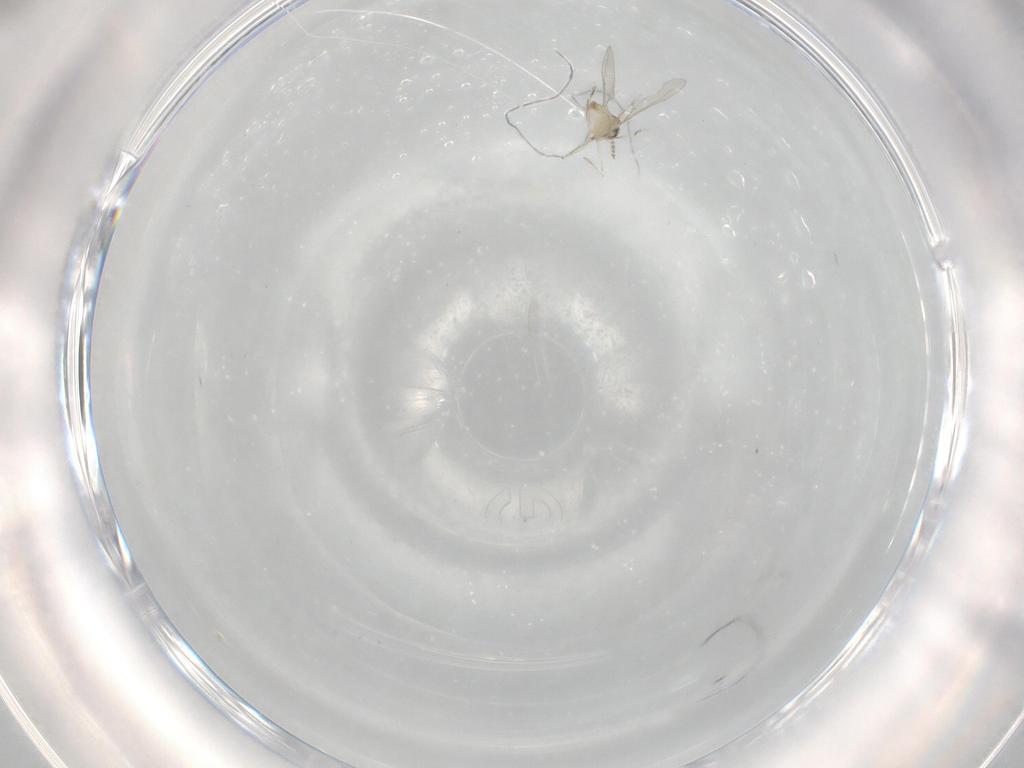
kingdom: Animalia
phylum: Arthropoda
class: Insecta
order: Diptera
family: Cecidomyiidae
